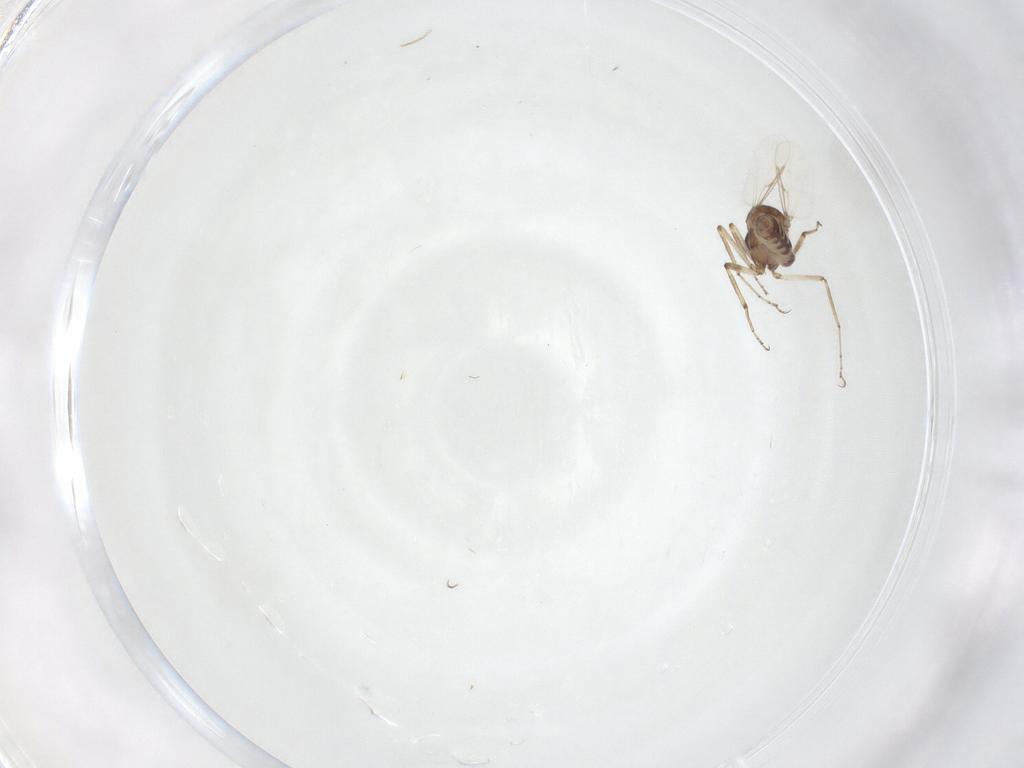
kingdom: Animalia
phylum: Arthropoda
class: Insecta
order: Diptera
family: Ceratopogonidae
